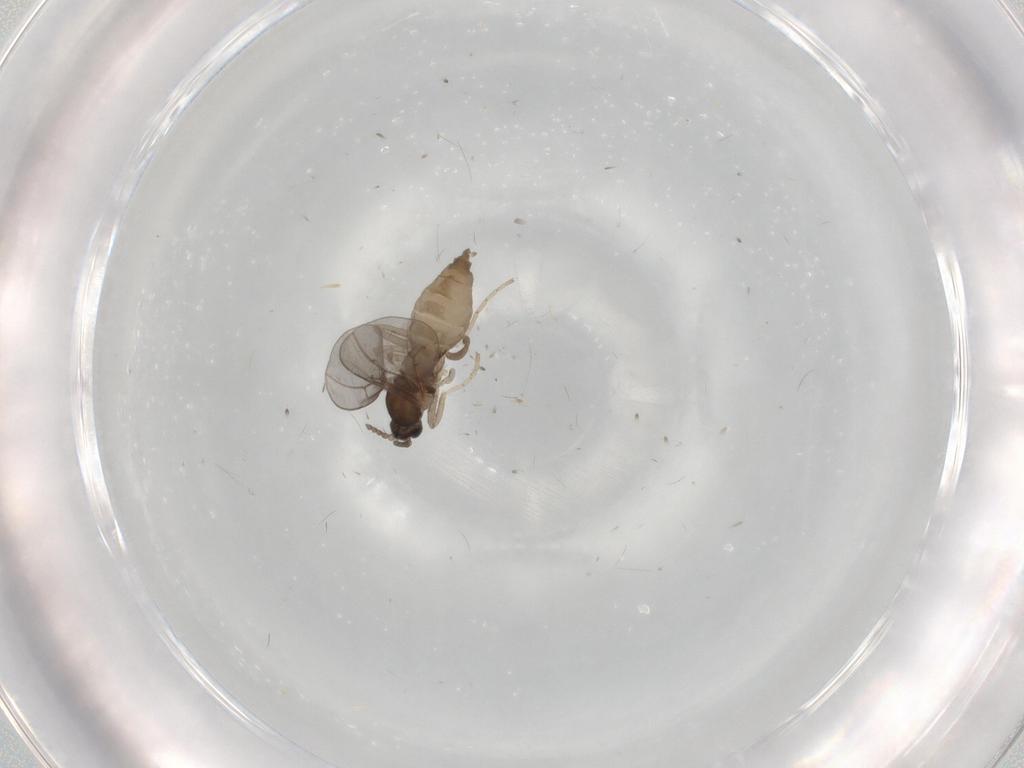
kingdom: Animalia
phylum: Arthropoda
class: Insecta
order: Diptera
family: Cecidomyiidae
